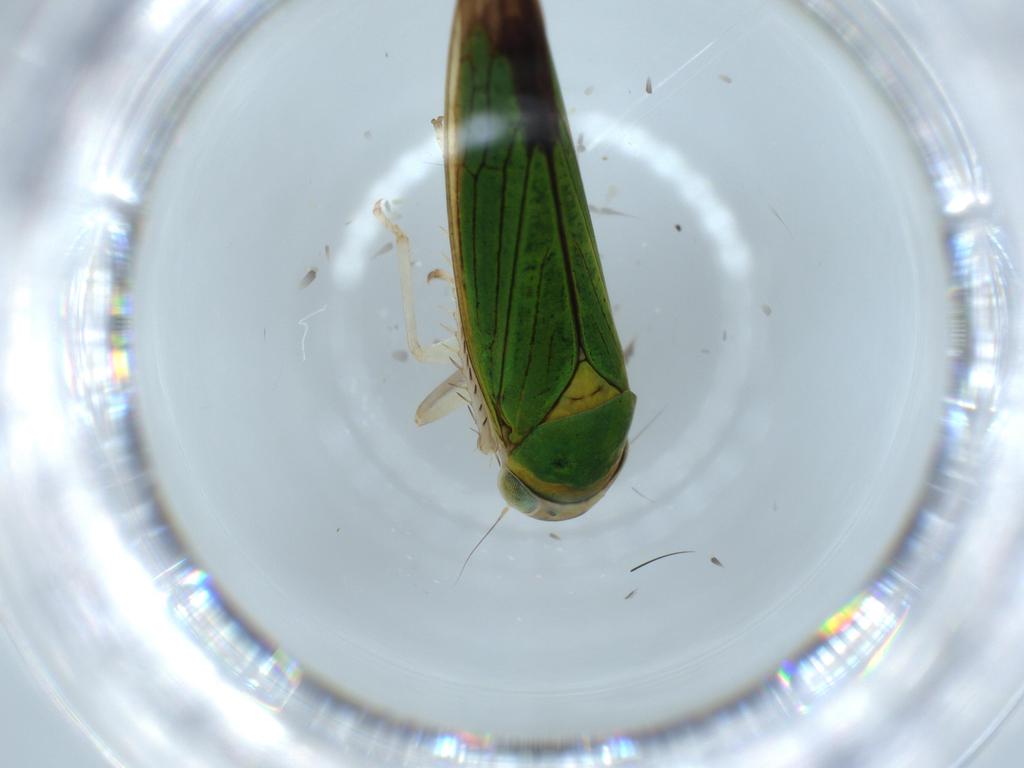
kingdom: Animalia
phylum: Arthropoda
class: Insecta
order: Hemiptera
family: Cicadellidae
